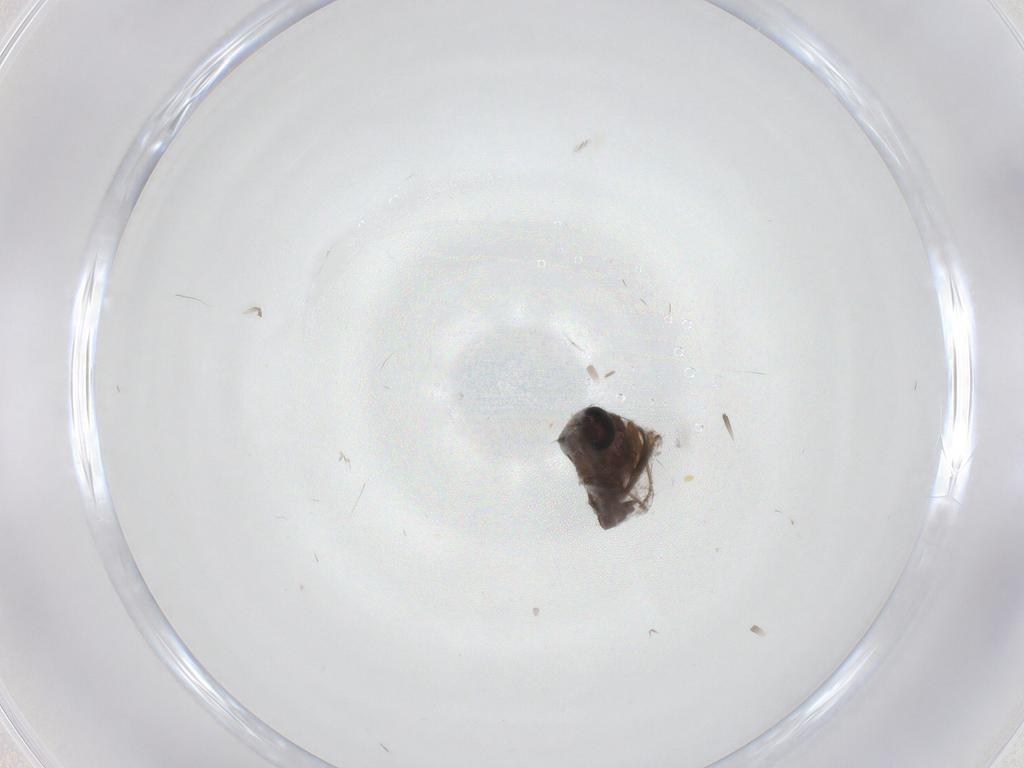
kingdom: Animalia
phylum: Arthropoda
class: Insecta
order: Diptera
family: Ceratopogonidae
